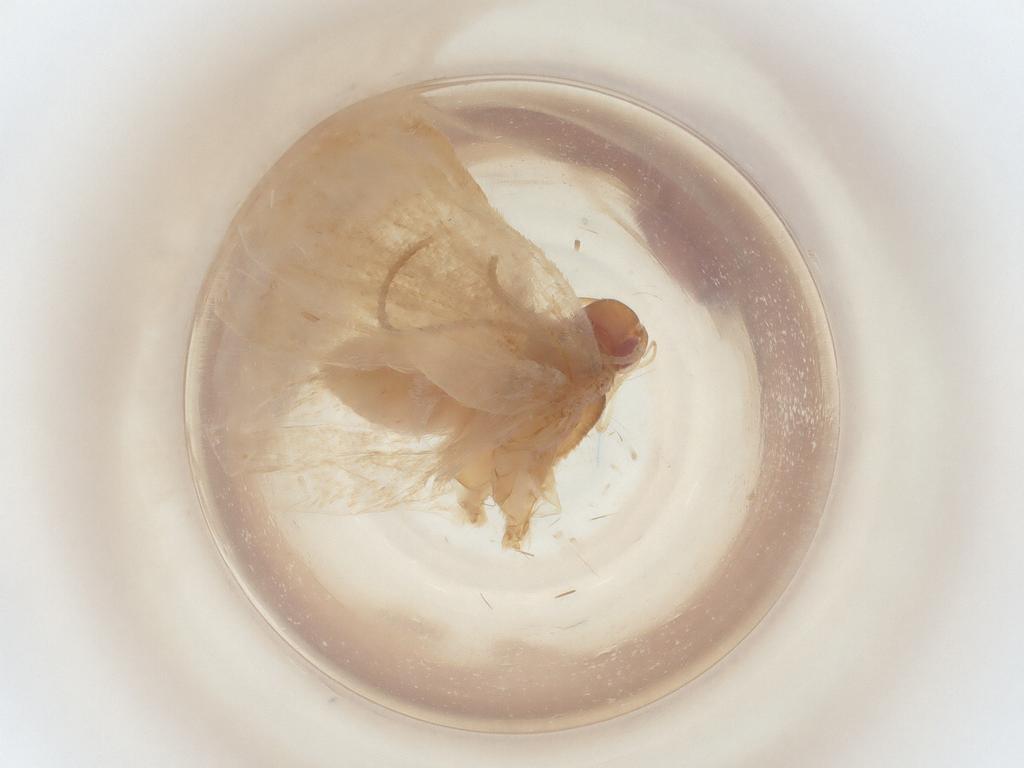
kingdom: Animalia
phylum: Arthropoda
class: Insecta
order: Lepidoptera
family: Gelechiidae
